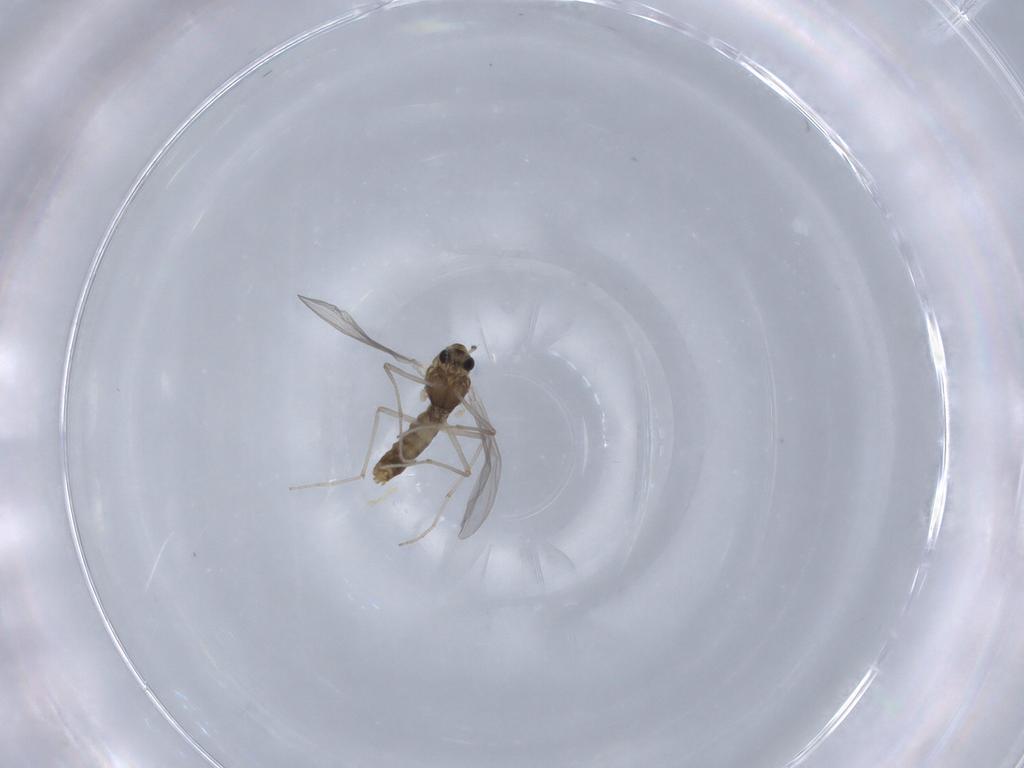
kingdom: Animalia
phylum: Arthropoda
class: Insecta
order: Diptera
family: Chironomidae
